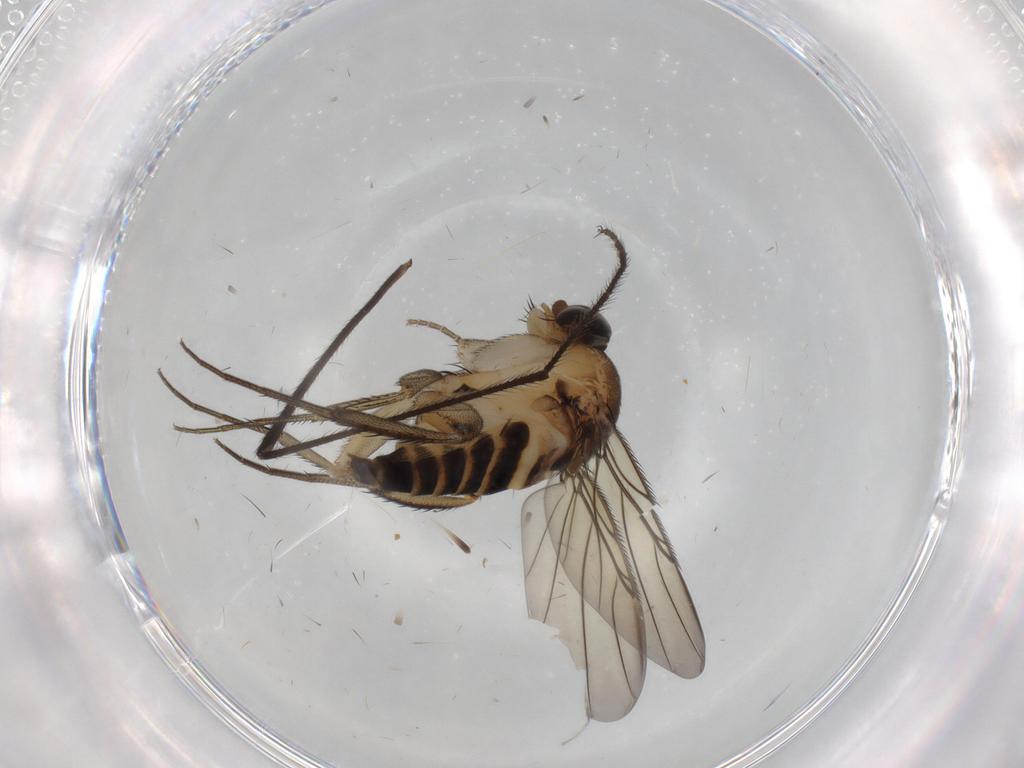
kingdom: Animalia
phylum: Arthropoda
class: Insecta
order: Diptera
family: Phoridae
